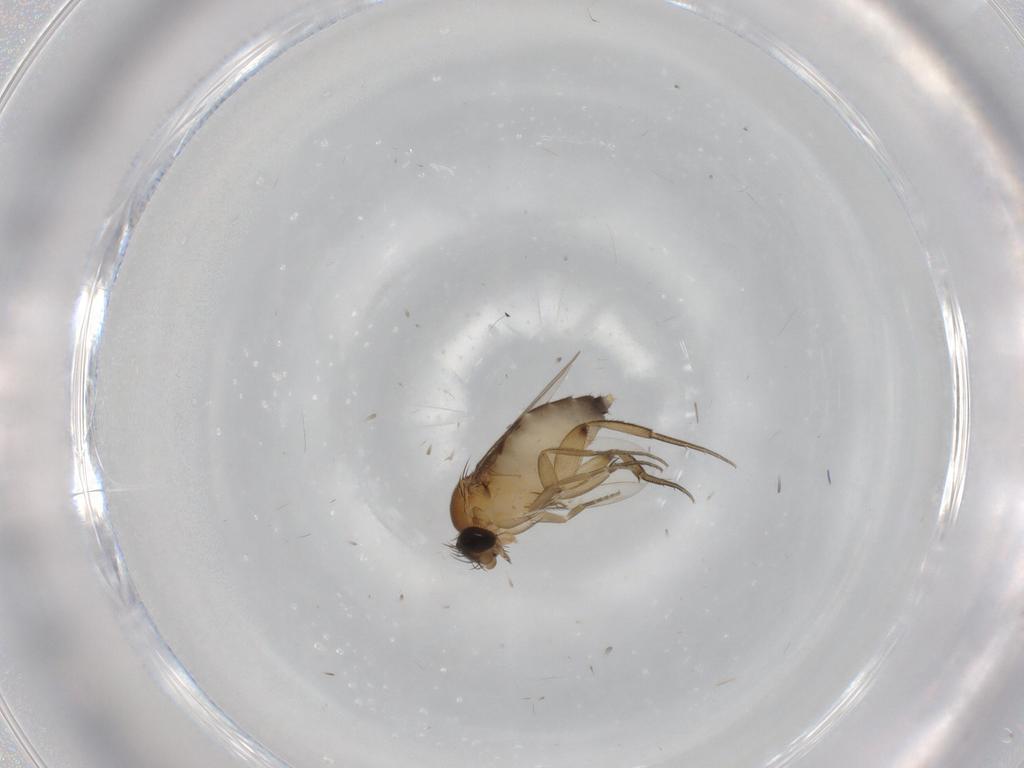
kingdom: Animalia
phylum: Arthropoda
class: Insecta
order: Diptera
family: Phoridae
